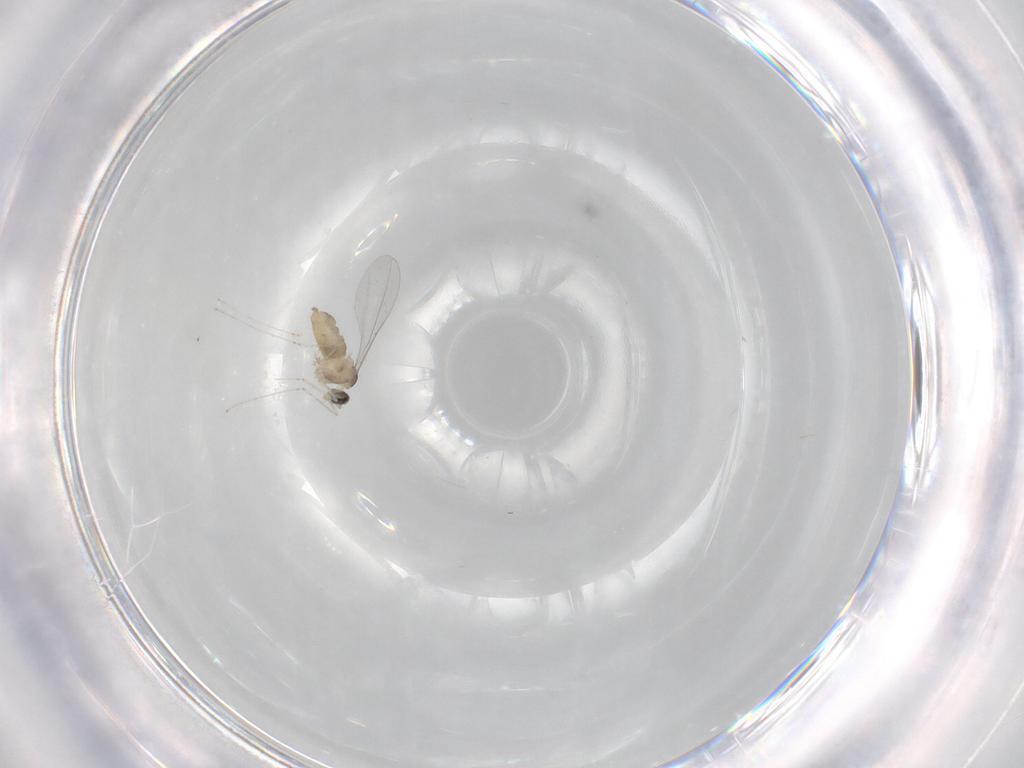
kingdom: Animalia
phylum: Arthropoda
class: Insecta
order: Diptera
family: Cecidomyiidae
